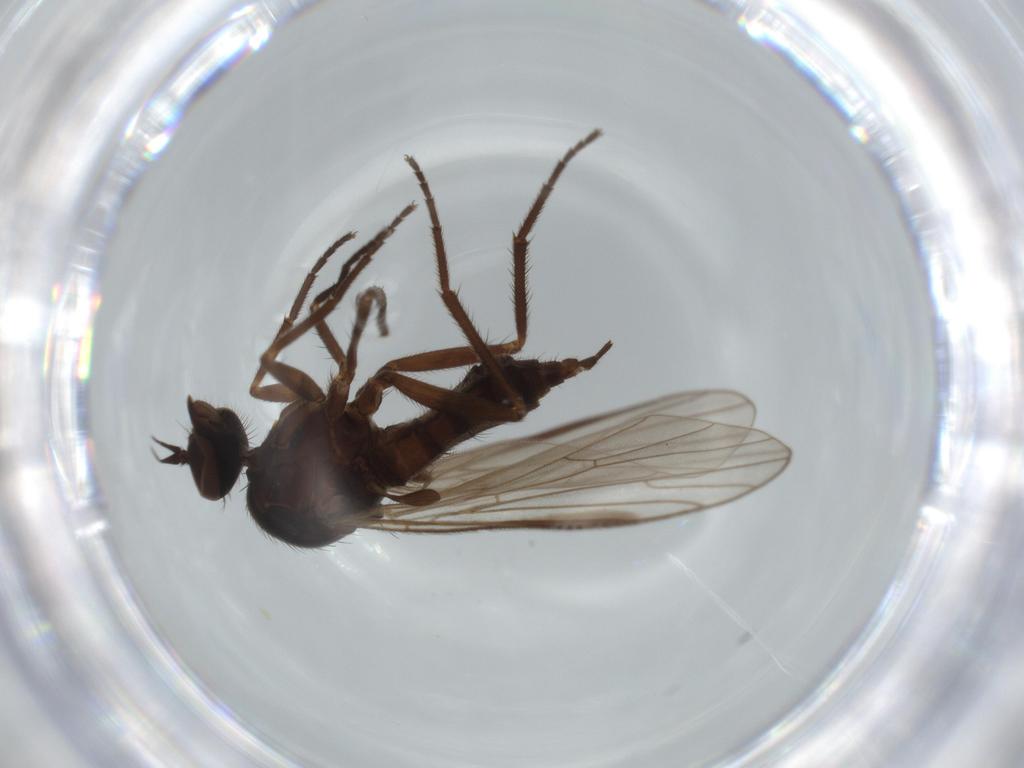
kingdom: Animalia
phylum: Arthropoda
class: Insecta
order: Diptera
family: Empididae
